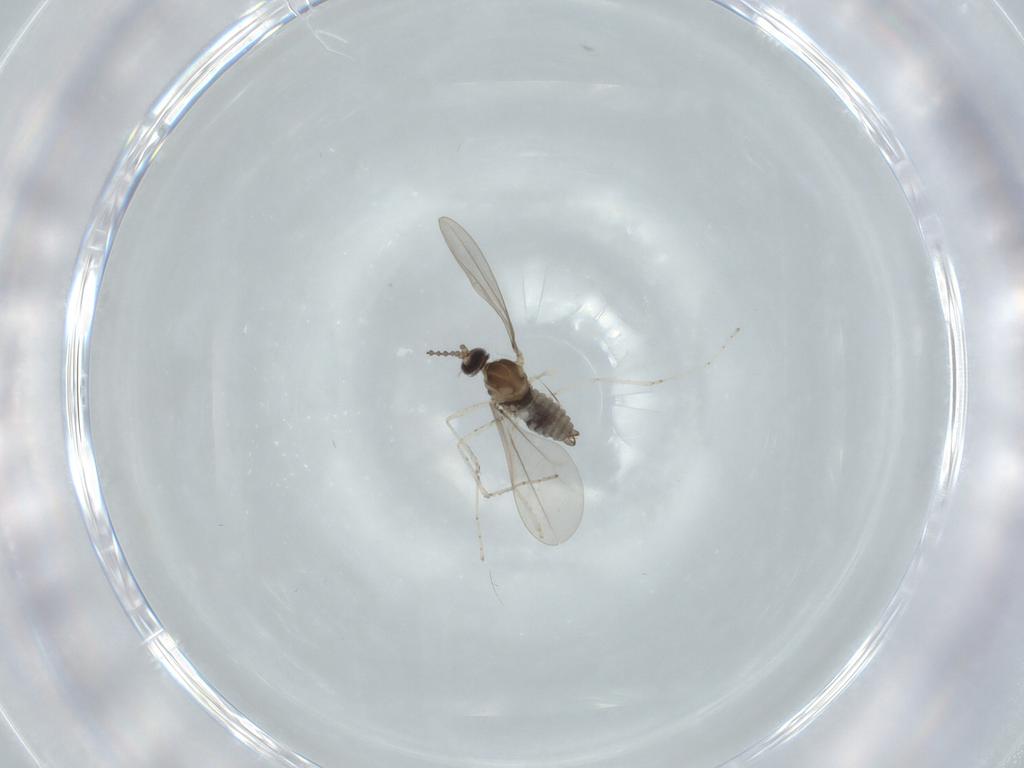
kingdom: Animalia
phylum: Arthropoda
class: Insecta
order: Diptera
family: Cecidomyiidae
